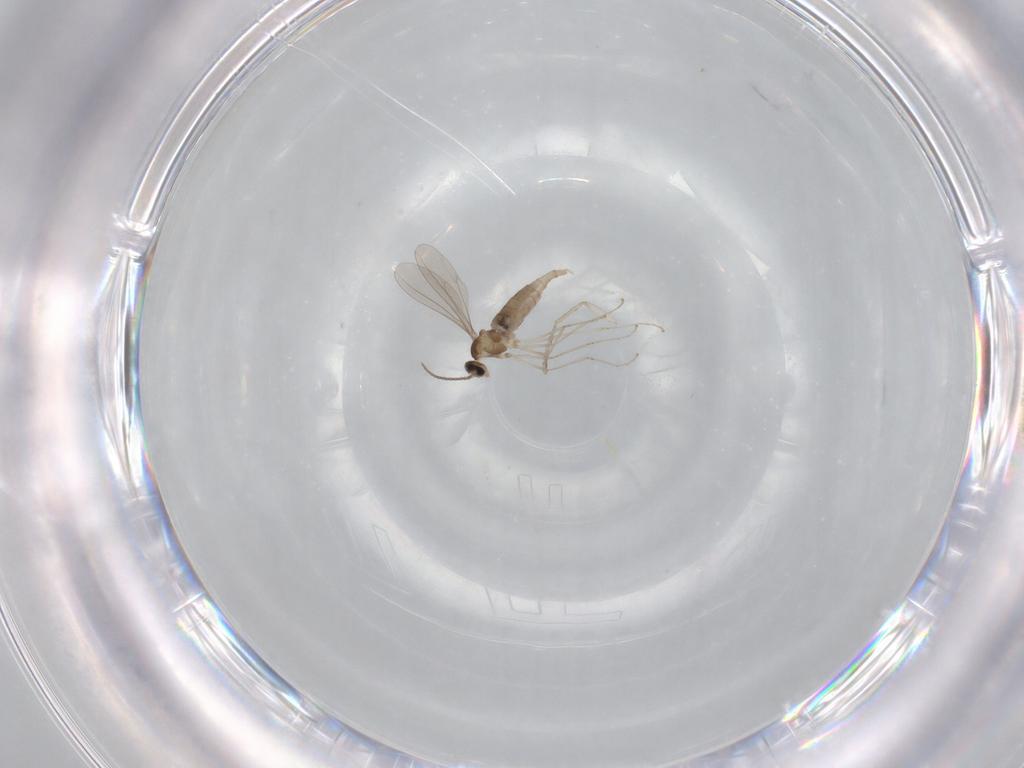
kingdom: Animalia
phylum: Arthropoda
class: Insecta
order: Diptera
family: Psychodidae
